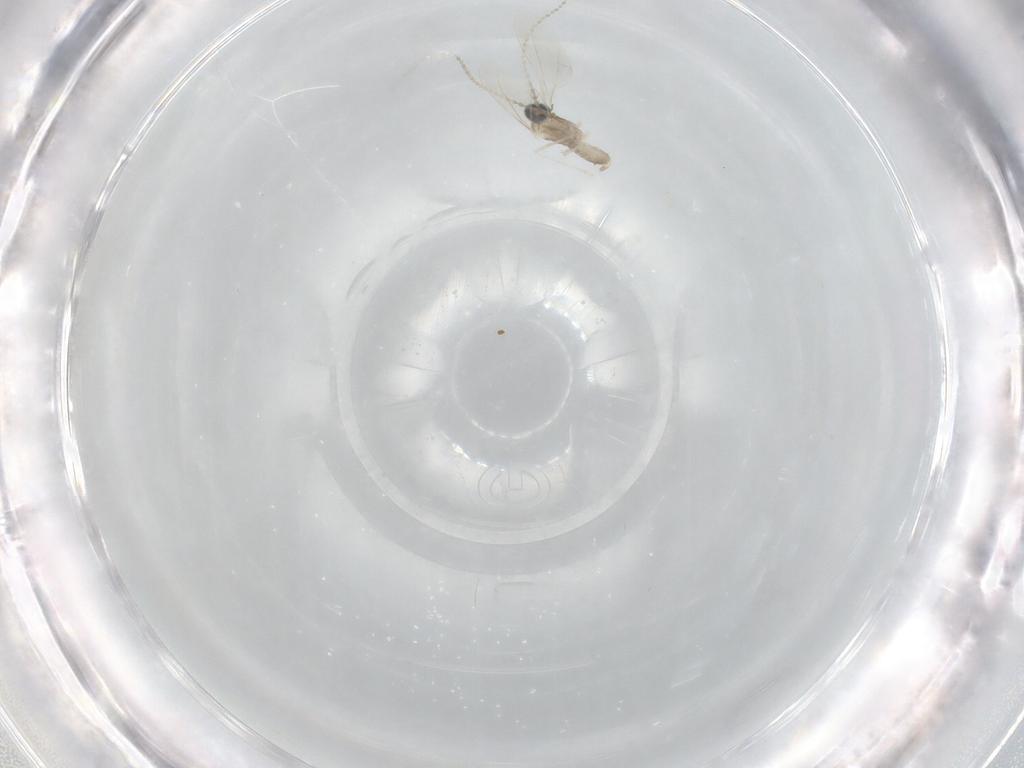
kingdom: Animalia
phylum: Arthropoda
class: Insecta
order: Diptera
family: Cecidomyiidae
